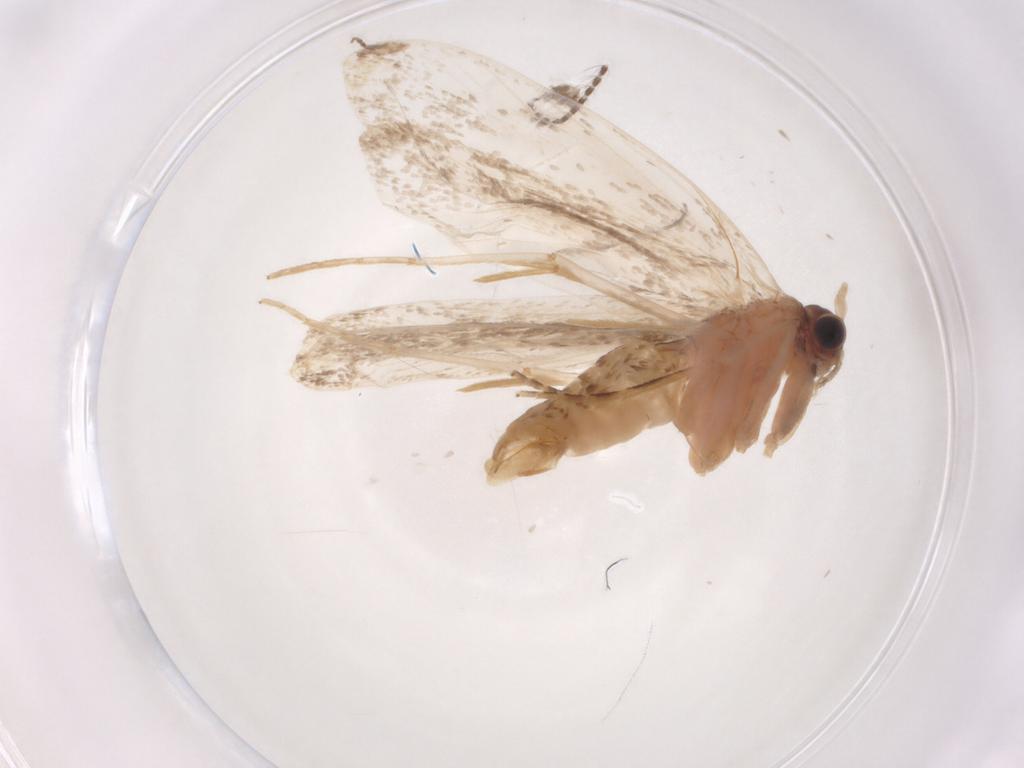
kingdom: Animalia
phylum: Arthropoda
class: Insecta
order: Lepidoptera
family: Tineidae
